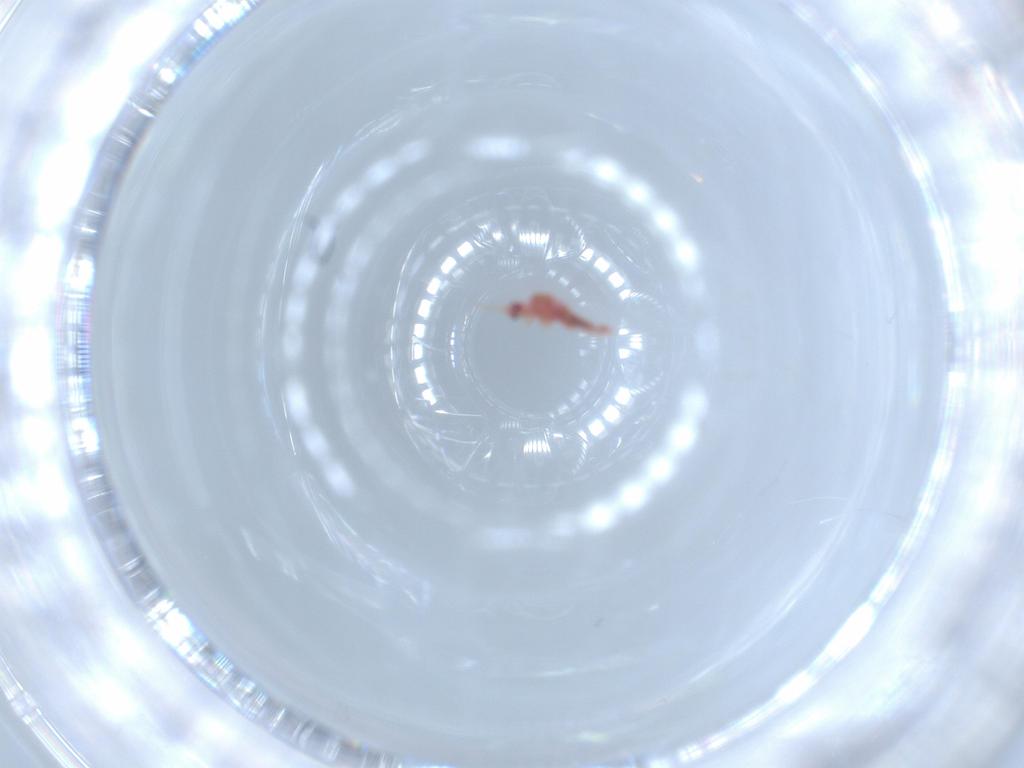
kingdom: Animalia
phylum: Arthropoda
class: Insecta
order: Hemiptera
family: Pseudococcidae
